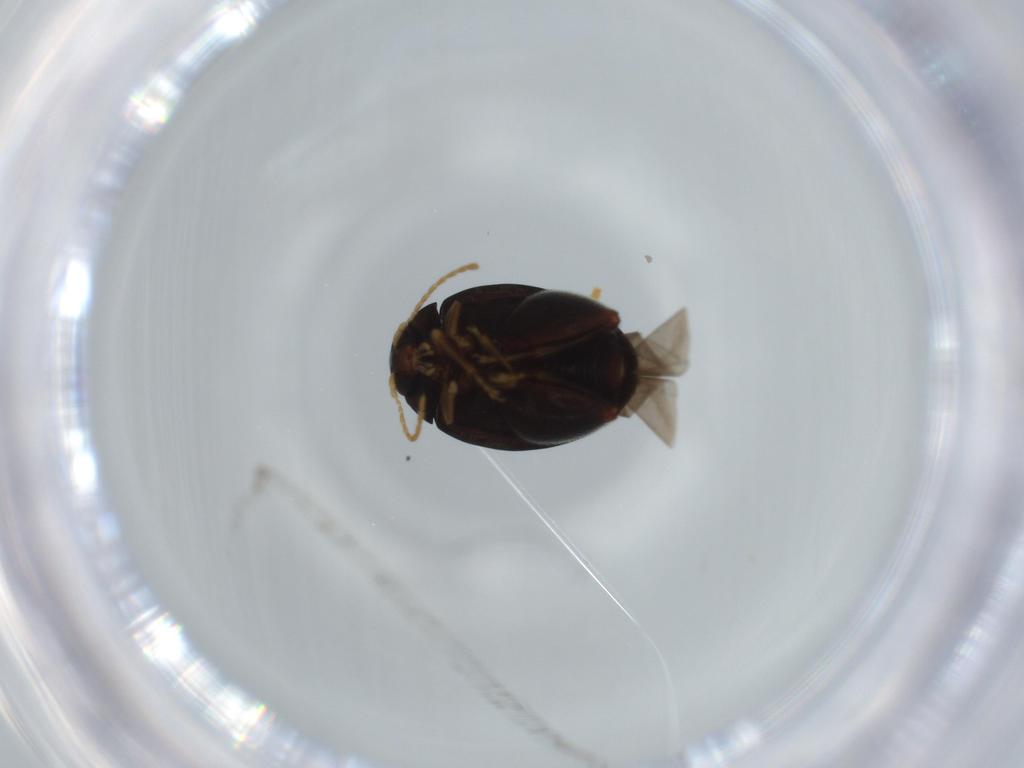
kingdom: Animalia
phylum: Arthropoda
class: Insecta
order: Coleoptera
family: Chrysomelidae
